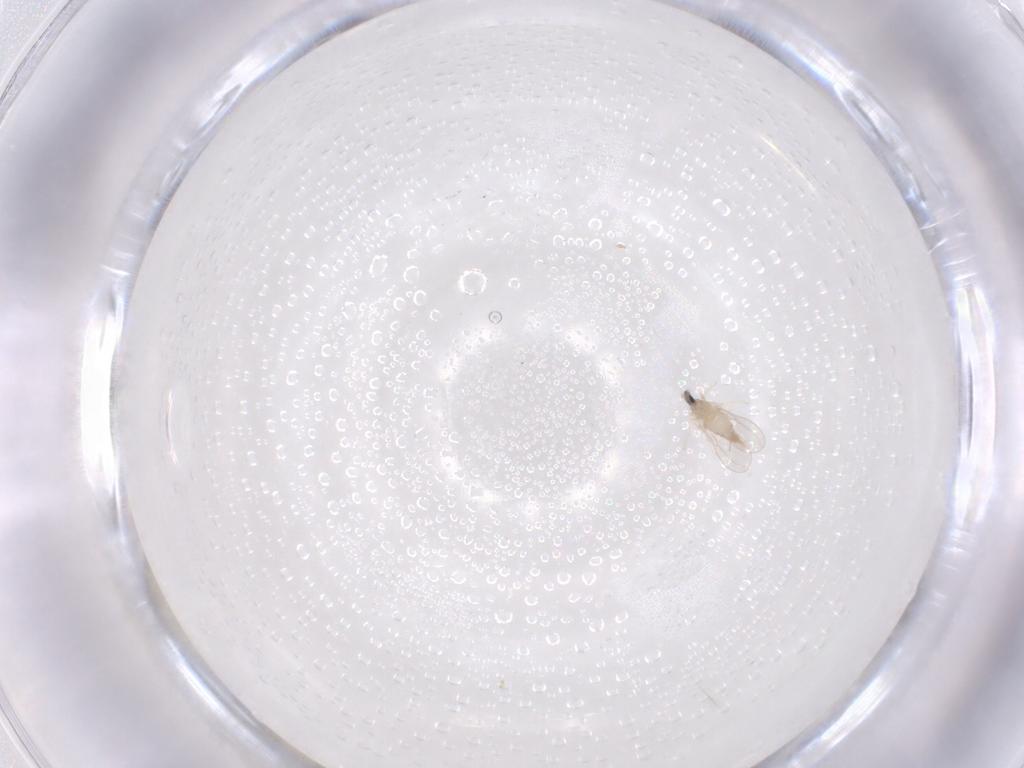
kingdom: Animalia
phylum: Arthropoda
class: Insecta
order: Diptera
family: Cecidomyiidae
